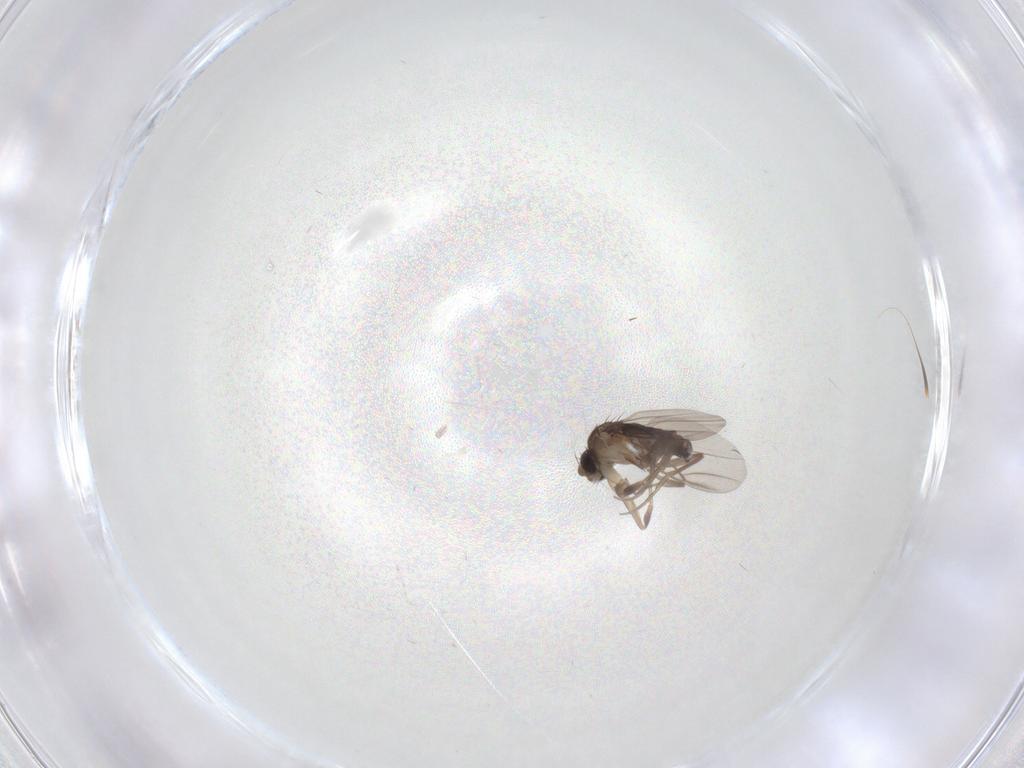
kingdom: Animalia
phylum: Arthropoda
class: Insecta
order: Diptera
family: Phoridae
